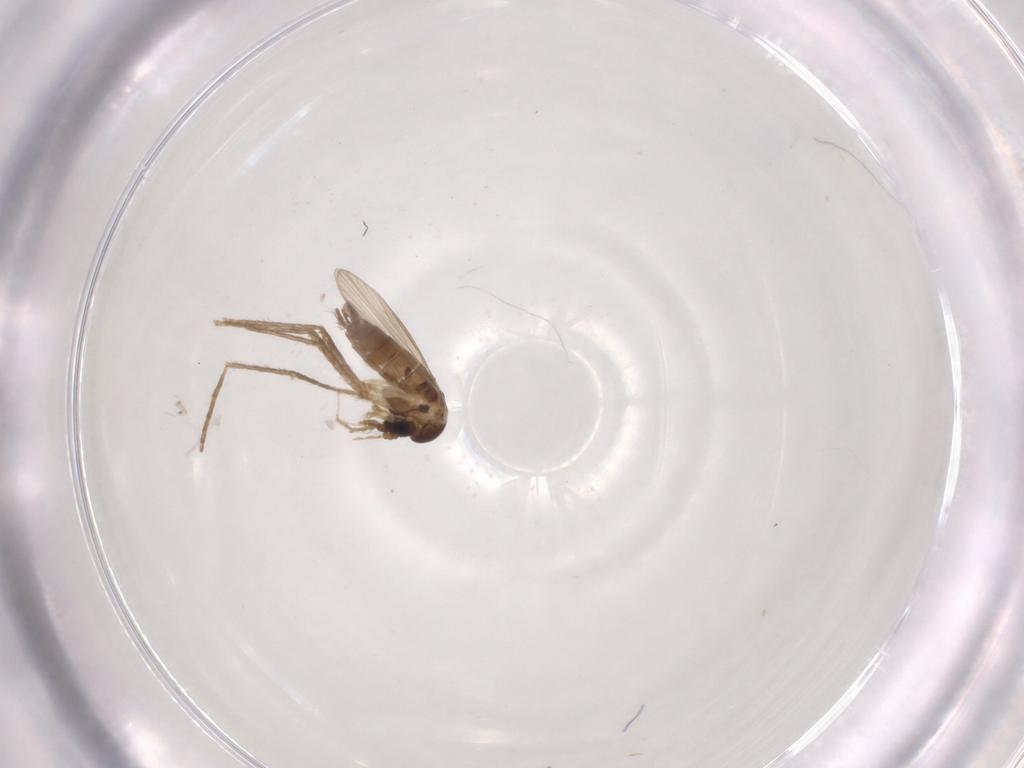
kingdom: Animalia
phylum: Arthropoda
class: Insecta
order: Diptera
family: Psychodidae
